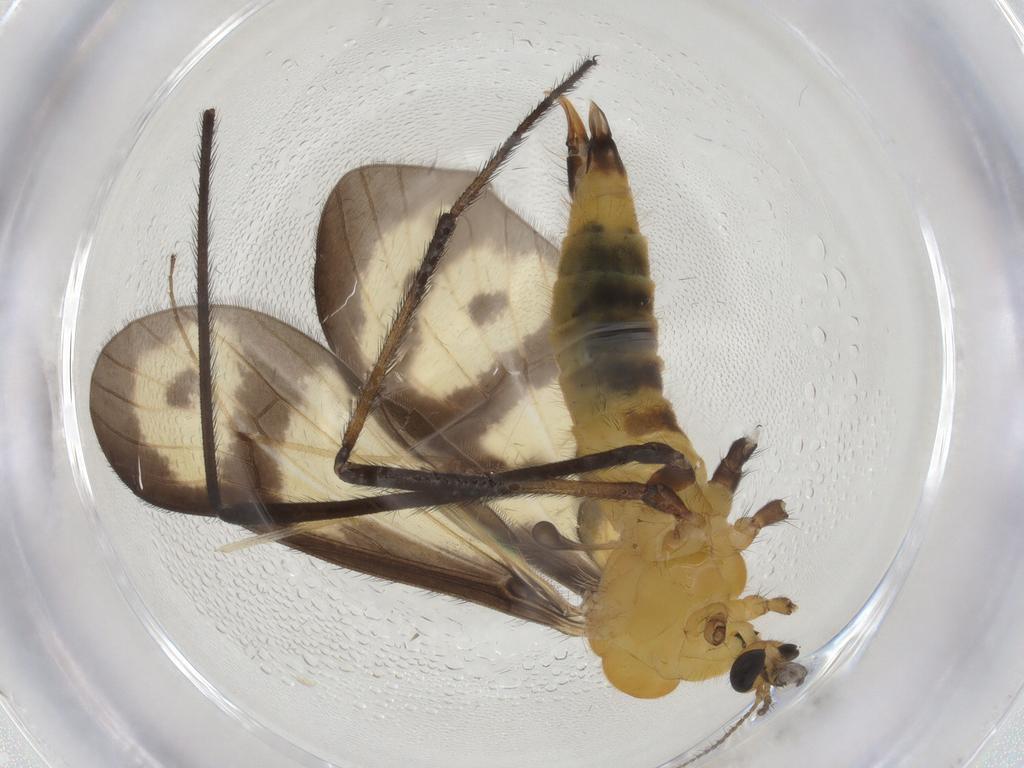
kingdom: Animalia
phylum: Arthropoda
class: Insecta
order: Diptera
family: Limoniidae
